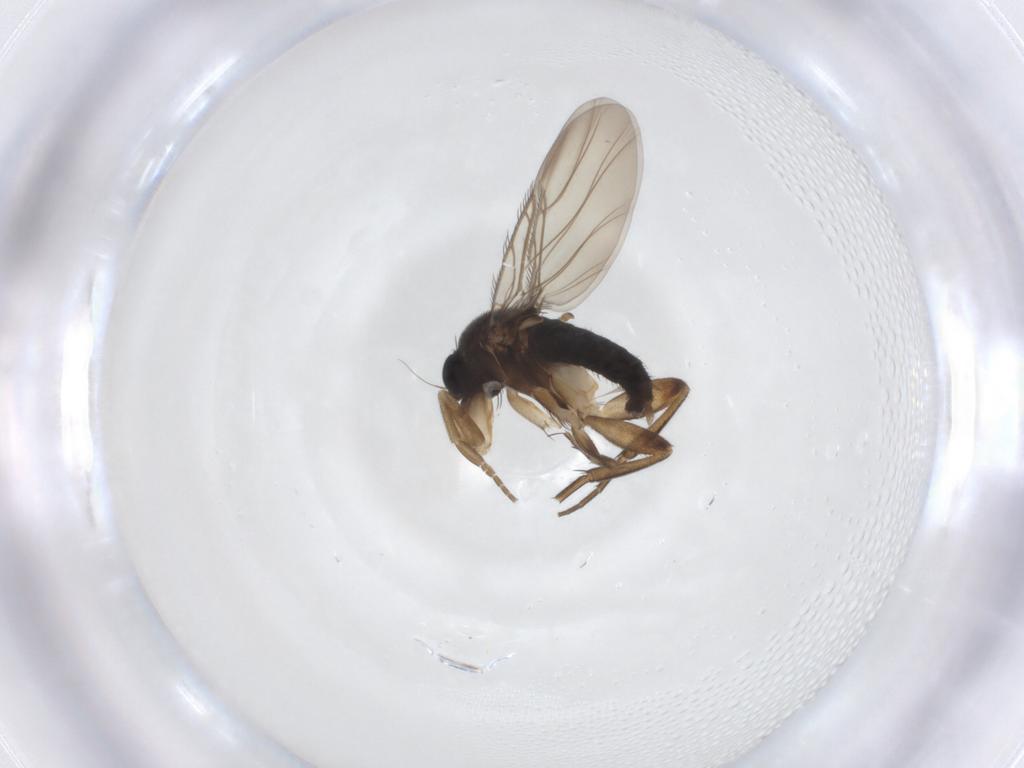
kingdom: Animalia
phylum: Arthropoda
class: Insecta
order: Diptera
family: Phoridae
